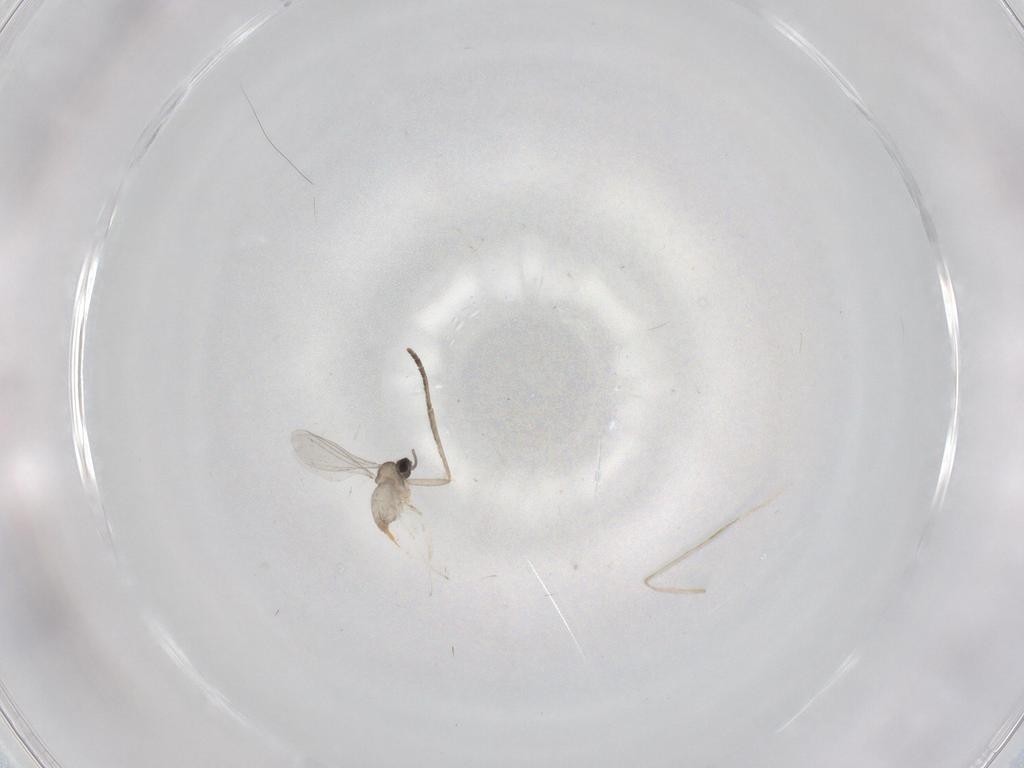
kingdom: Animalia
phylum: Arthropoda
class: Insecta
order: Diptera
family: Cecidomyiidae
